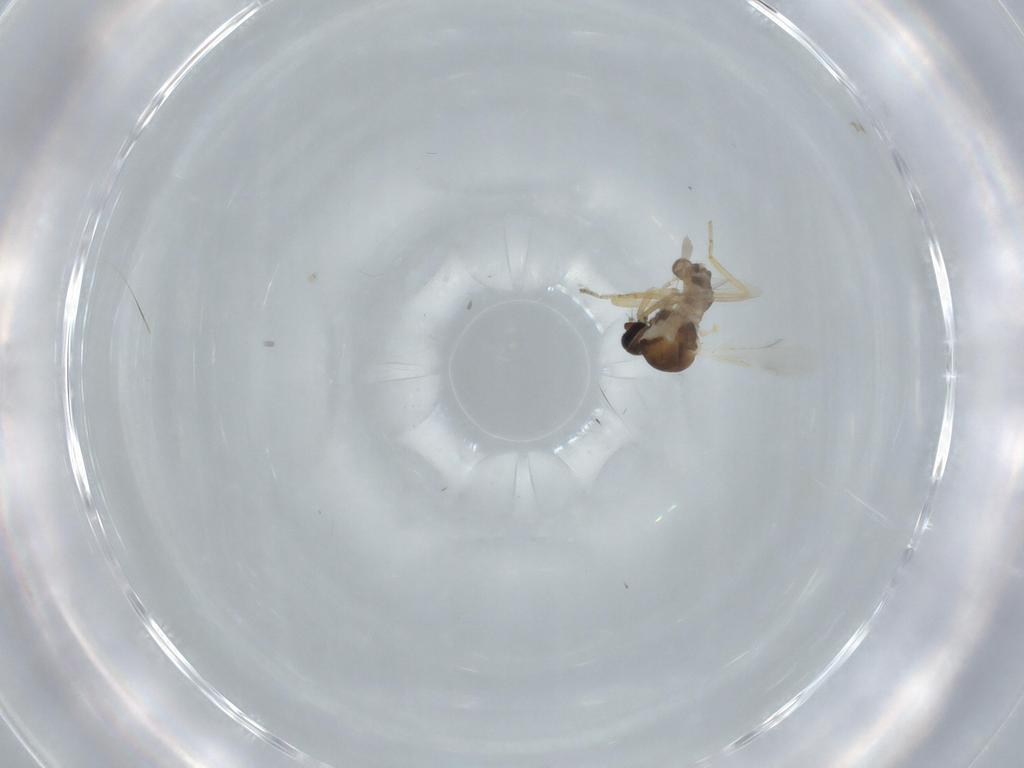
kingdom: Animalia
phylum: Arthropoda
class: Insecta
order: Diptera
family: Ceratopogonidae
